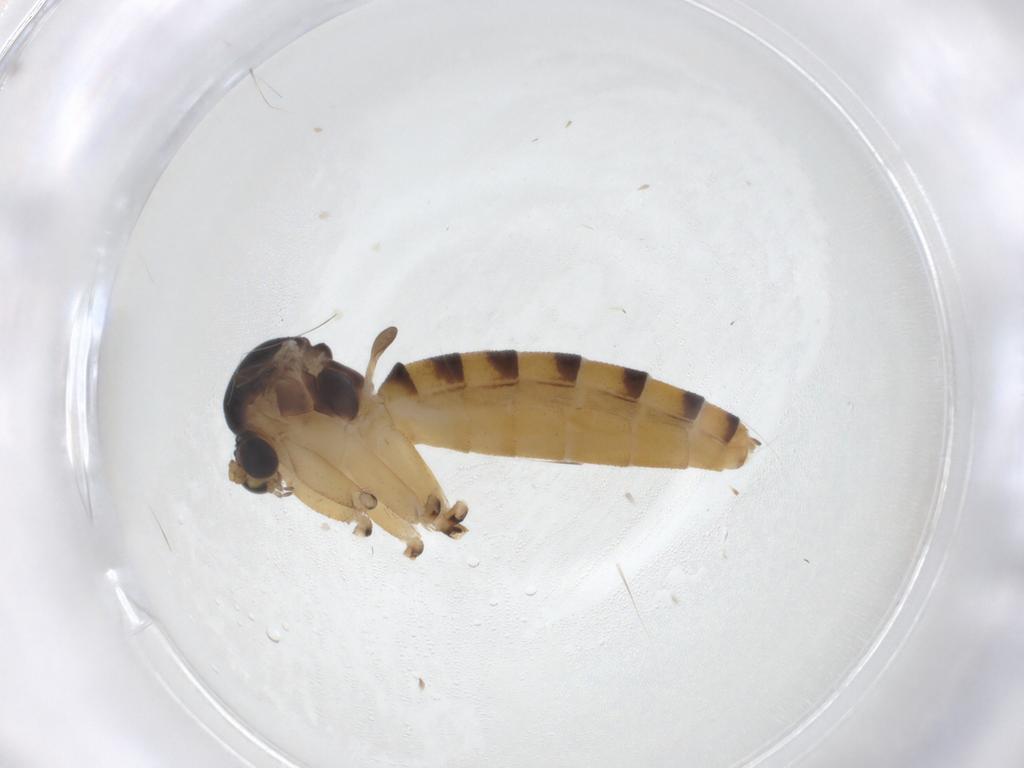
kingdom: Animalia
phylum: Arthropoda
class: Insecta
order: Diptera
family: Mycetophilidae
